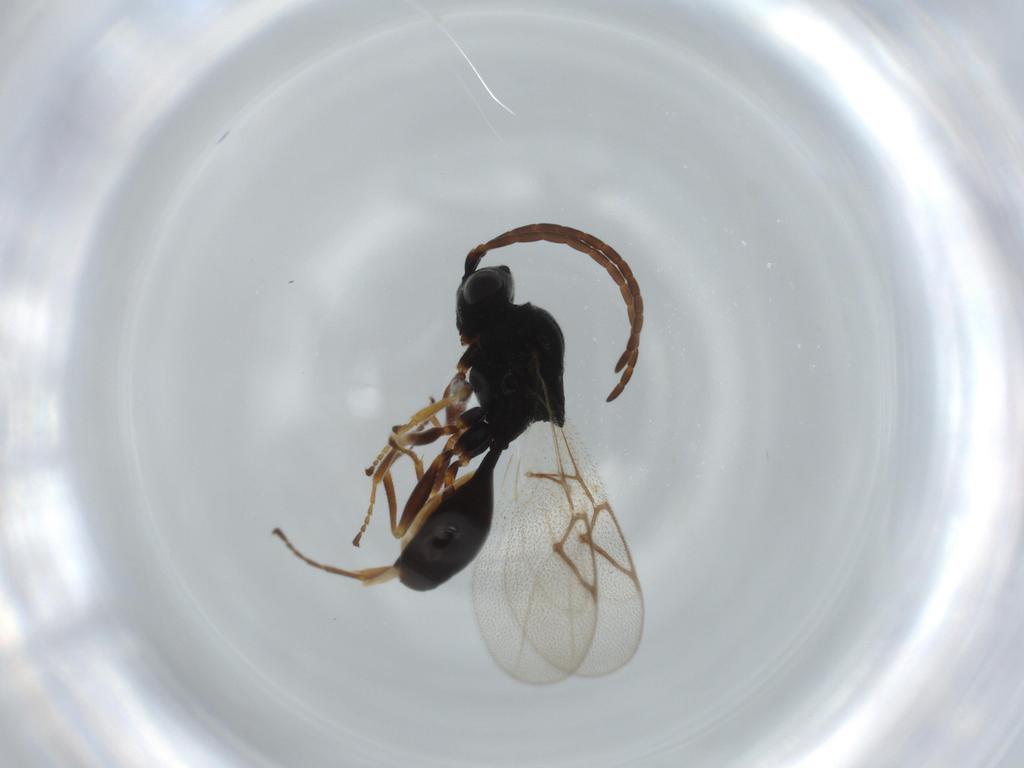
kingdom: Animalia
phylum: Arthropoda
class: Insecta
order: Hymenoptera
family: Figitidae
